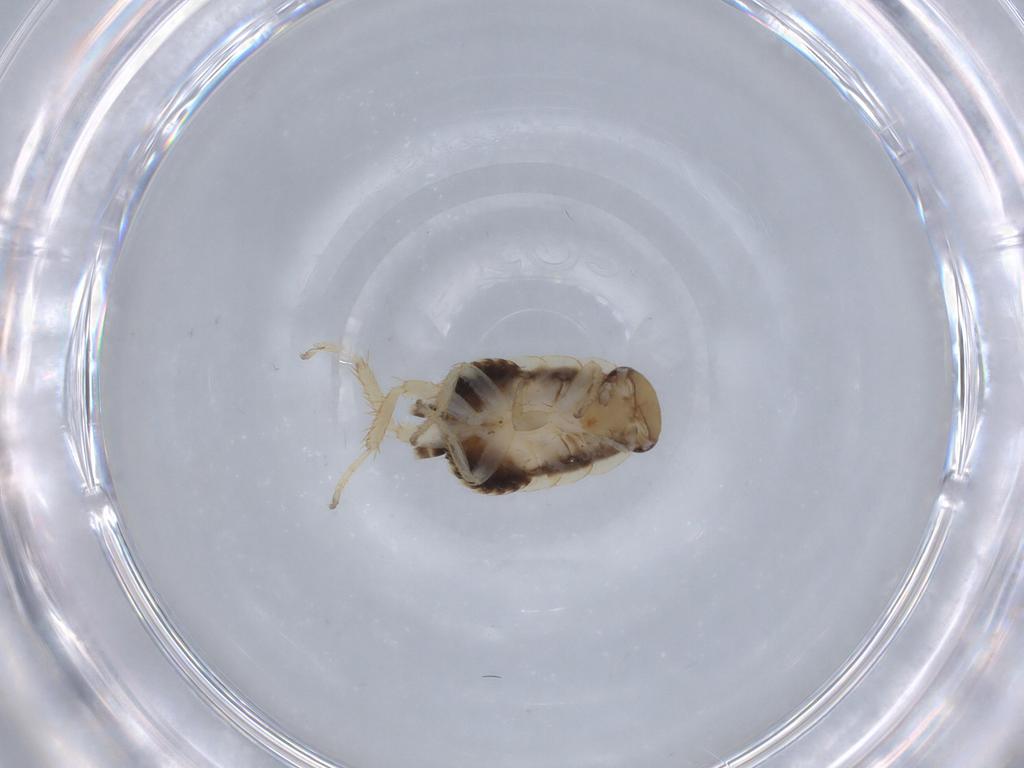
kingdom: Animalia
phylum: Arthropoda
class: Insecta
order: Blattodea
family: Ectobiidae
